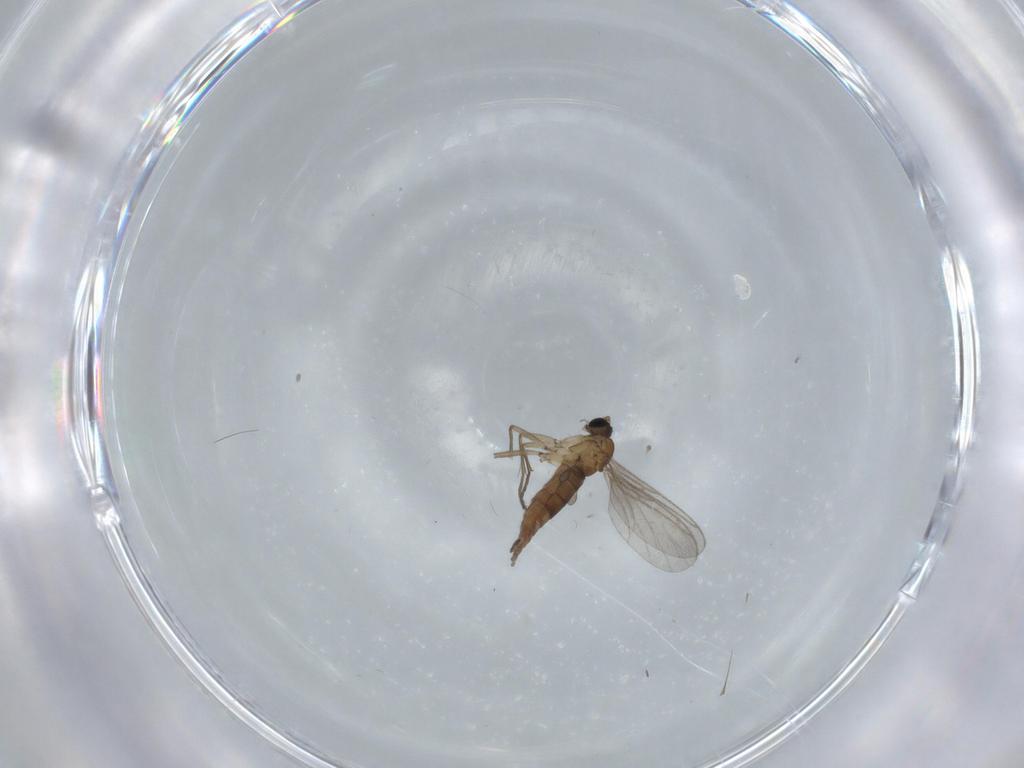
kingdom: Animalia
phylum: Arthropoda
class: Insecta
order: Diptera
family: Sciaridae
